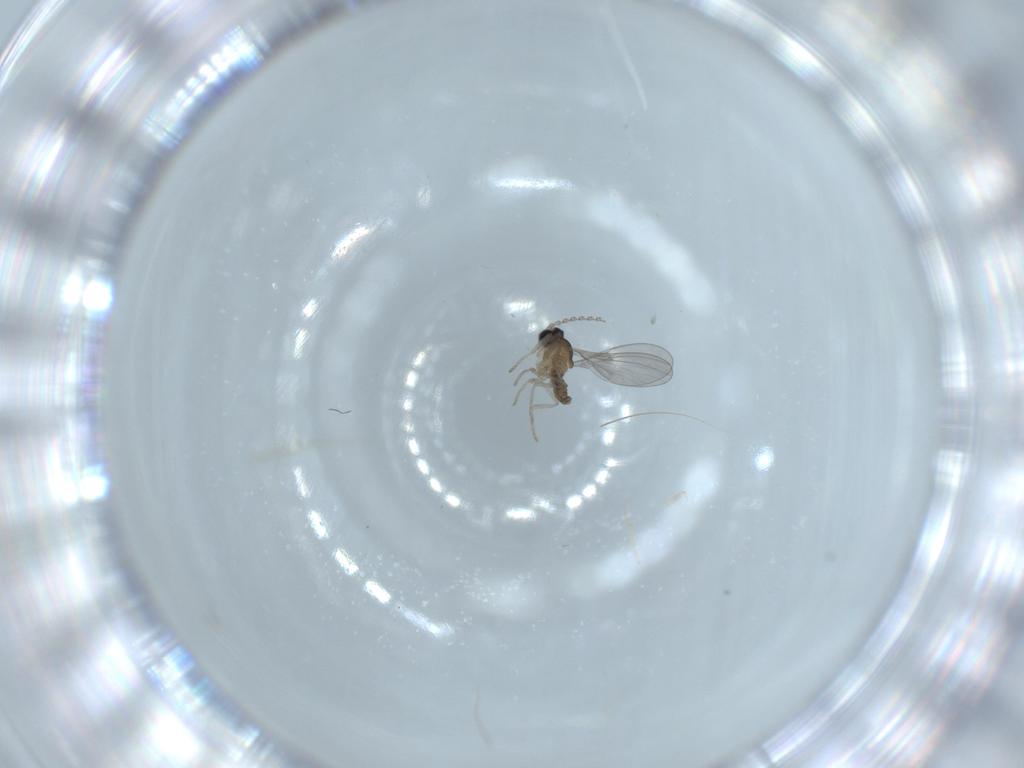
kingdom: Animalia
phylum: Arthropoda
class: Insecta
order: Diptera
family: Cecidomyiidae
